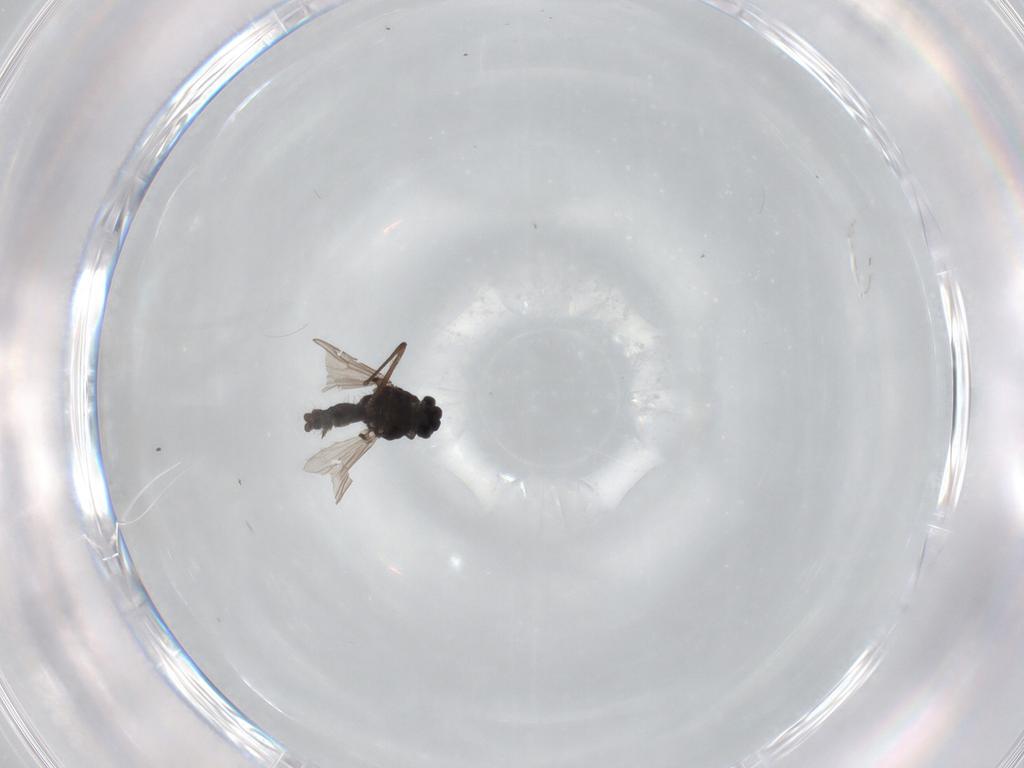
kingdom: Animalia
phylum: Arthropoda
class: Insecta
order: Diptera
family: Chironomidae
